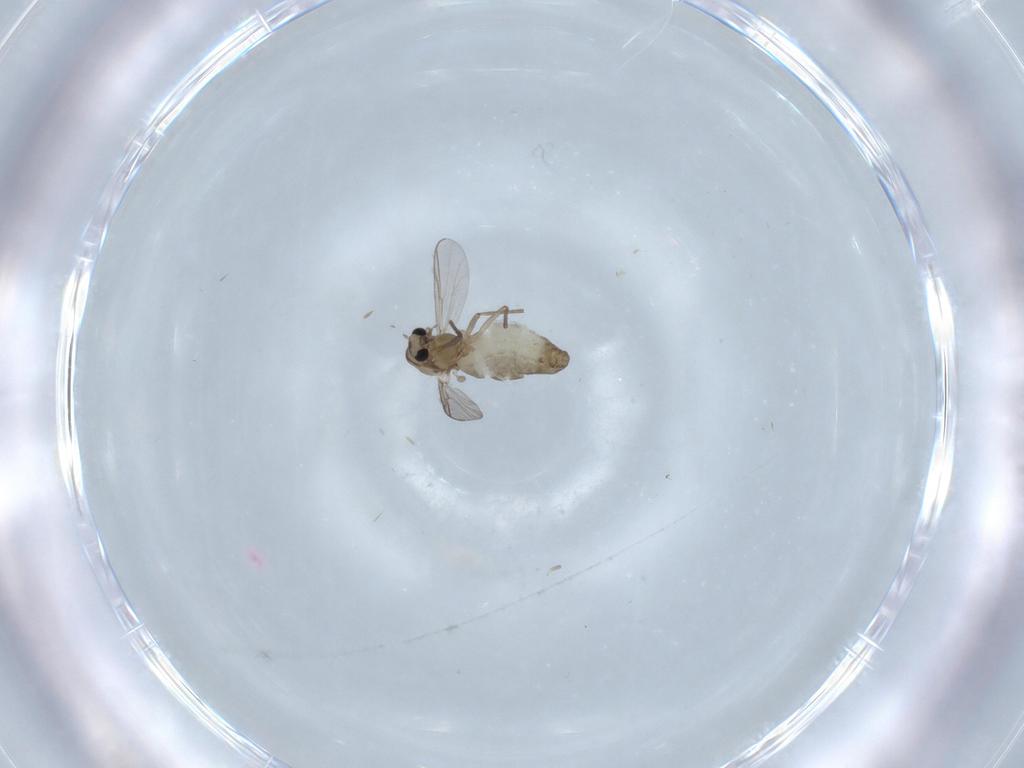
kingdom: Animalia
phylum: Arthropoda
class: Insecta
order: Diptera
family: Chironomidae
